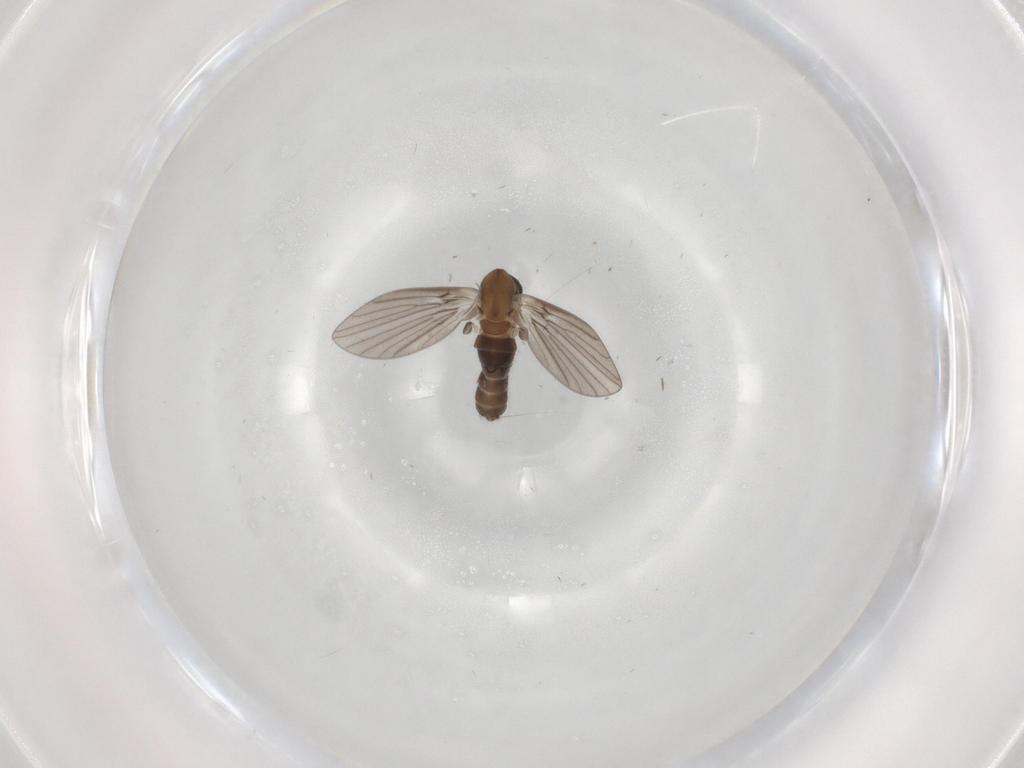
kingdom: Animalia
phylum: Arthropoda
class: Insecta
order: Diptera
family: Psychodidae
